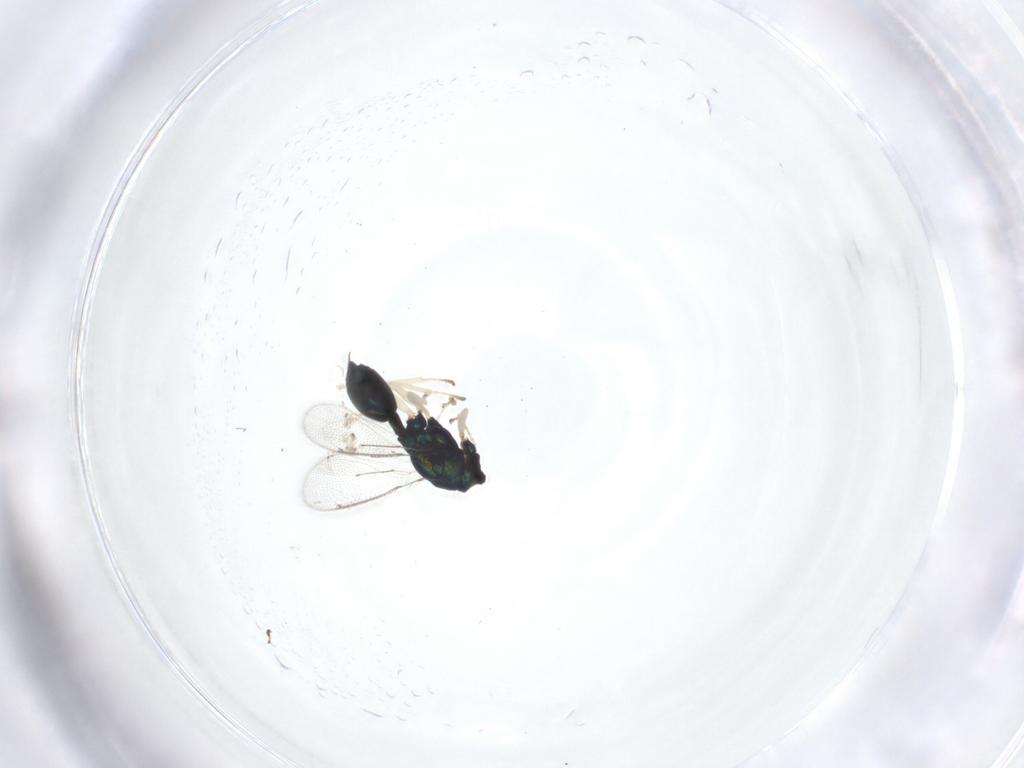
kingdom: Animalia
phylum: Arthropoda
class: Insecta
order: Hymenoptera
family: Eulophidae
